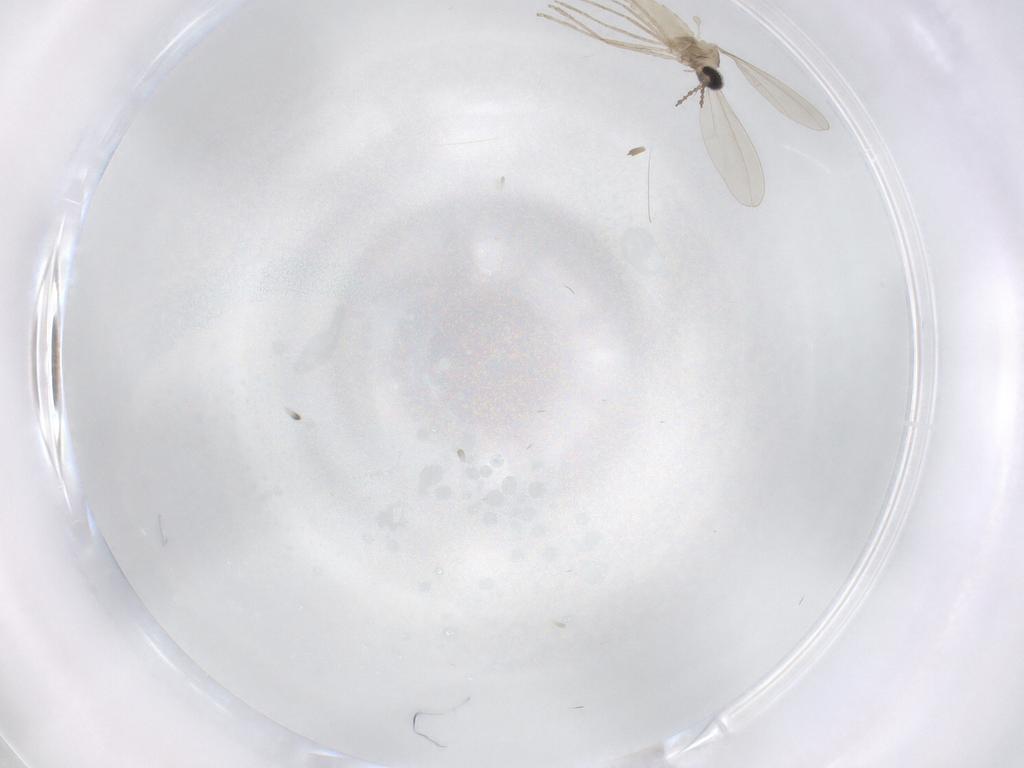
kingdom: Animalia
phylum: Arthropoda
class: Insecta
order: Diptera
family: Cecidomyiidae
